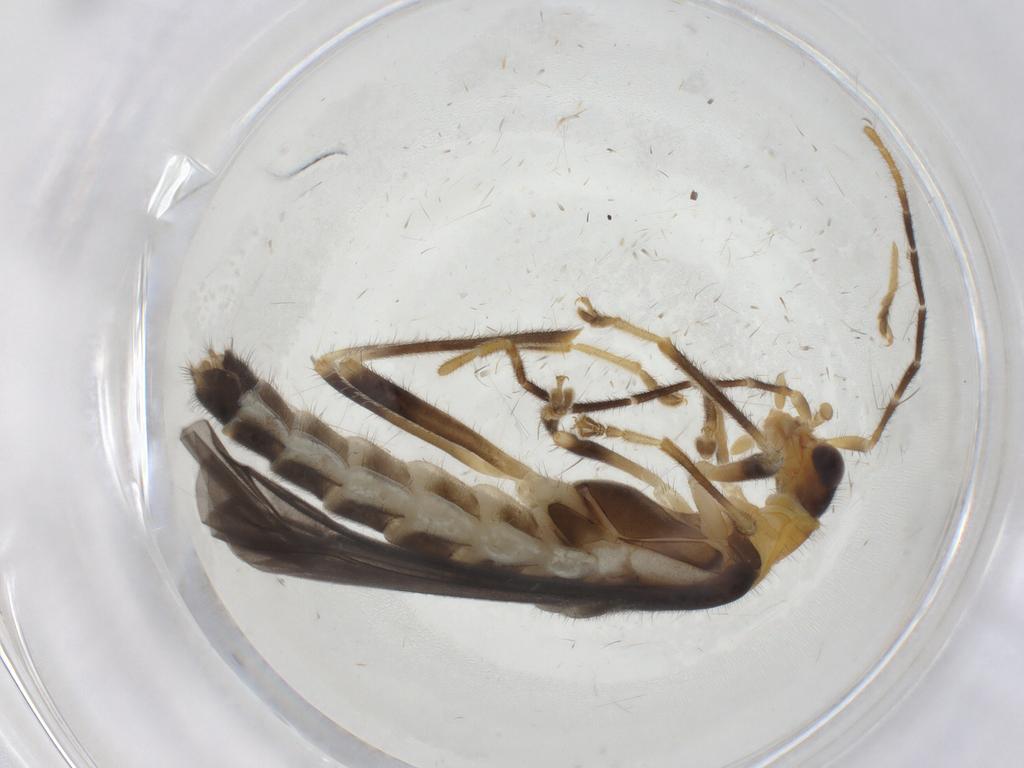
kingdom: Animalia
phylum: Arthropoda
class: Insecta
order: Coleoptera
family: Cantharidae
